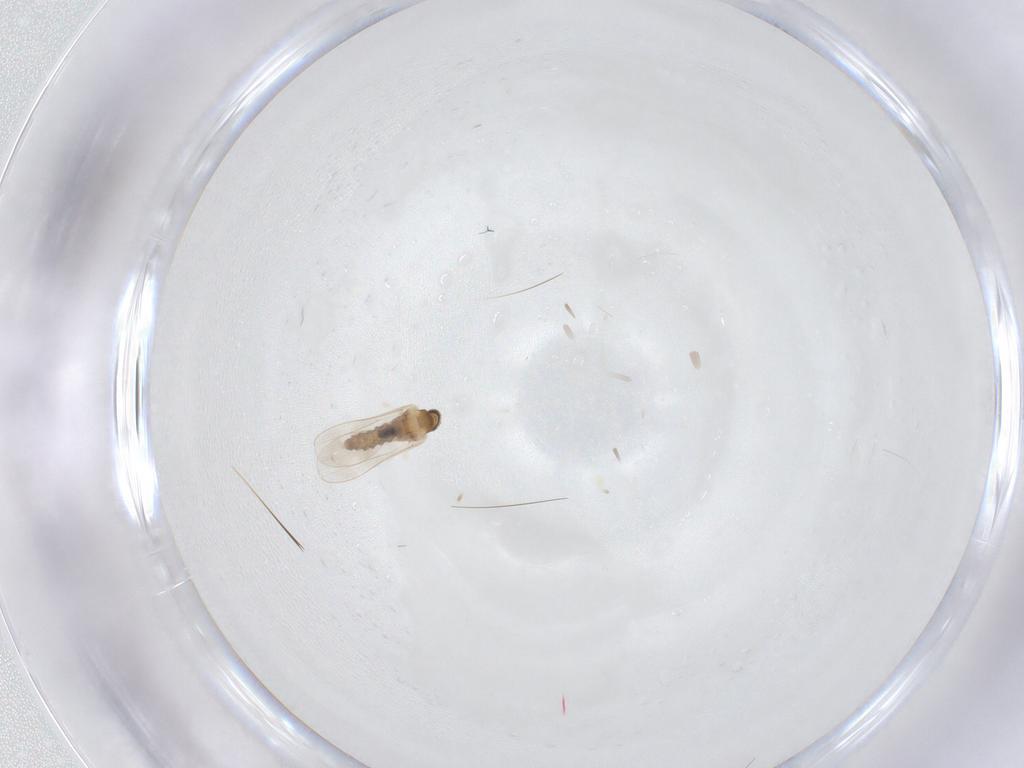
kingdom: Animalia
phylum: Arthropoda
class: Insecta
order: Diptera
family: Cecidomyiidae
